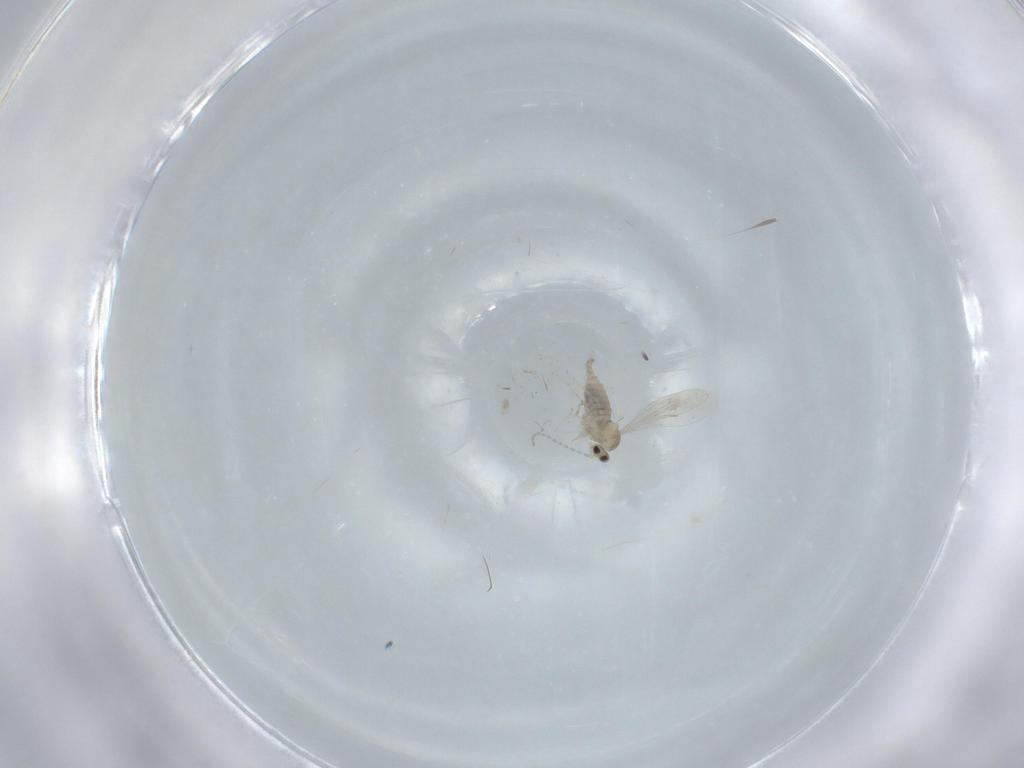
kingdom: Animalia
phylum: Arthropoda
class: Insecta
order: Diptera
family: Cecidomyiidae
